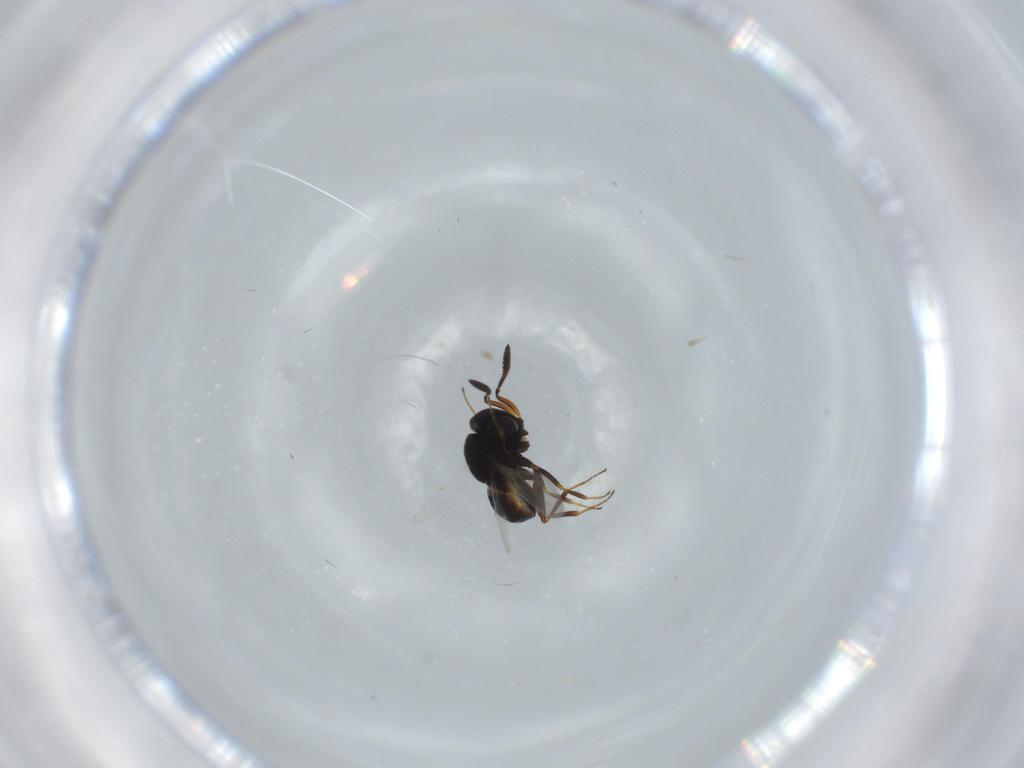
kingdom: Animalia
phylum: Arthropoda
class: Insecta
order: Hymenoptera
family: Scelionidae
